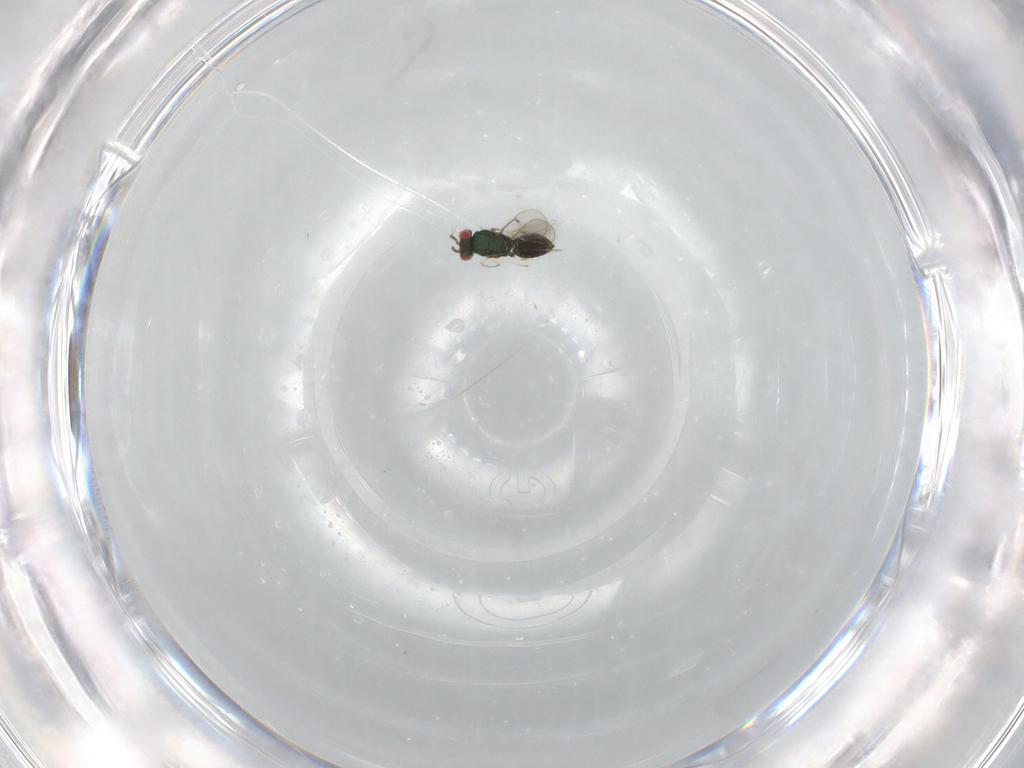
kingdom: Animalia
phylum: Arthropoda
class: Insecta
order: Hymenoptera
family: Eulophidae
